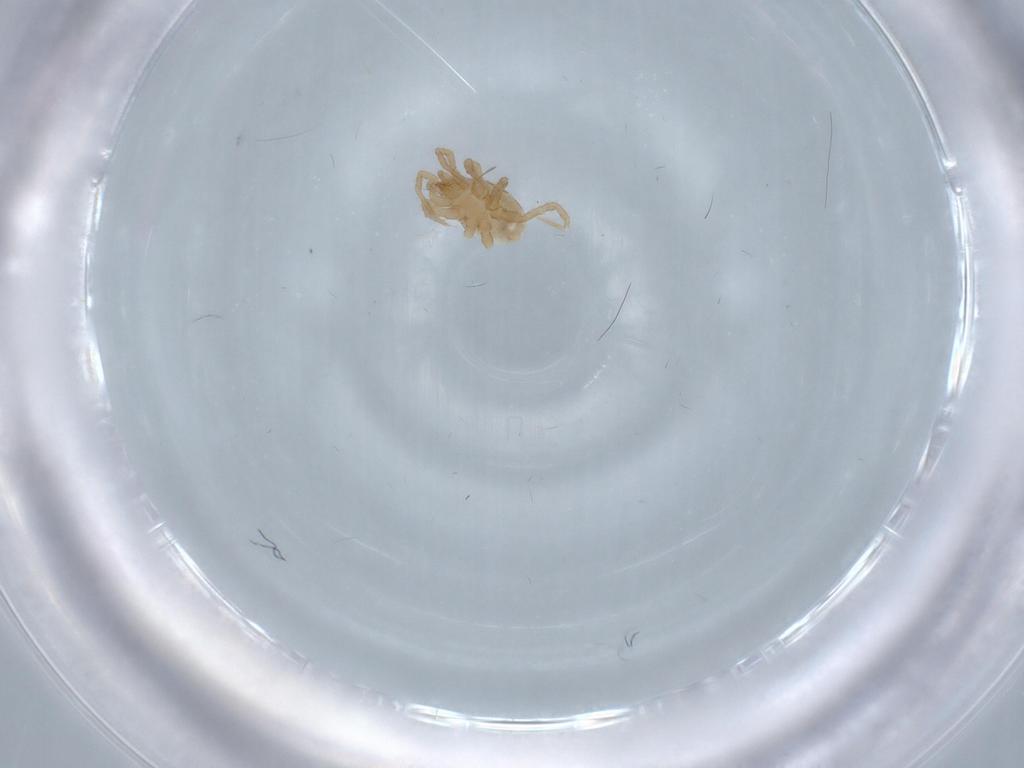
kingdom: Animalia
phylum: Arthropoda
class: Arachnida
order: Mesostigmata
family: Parasitidae
